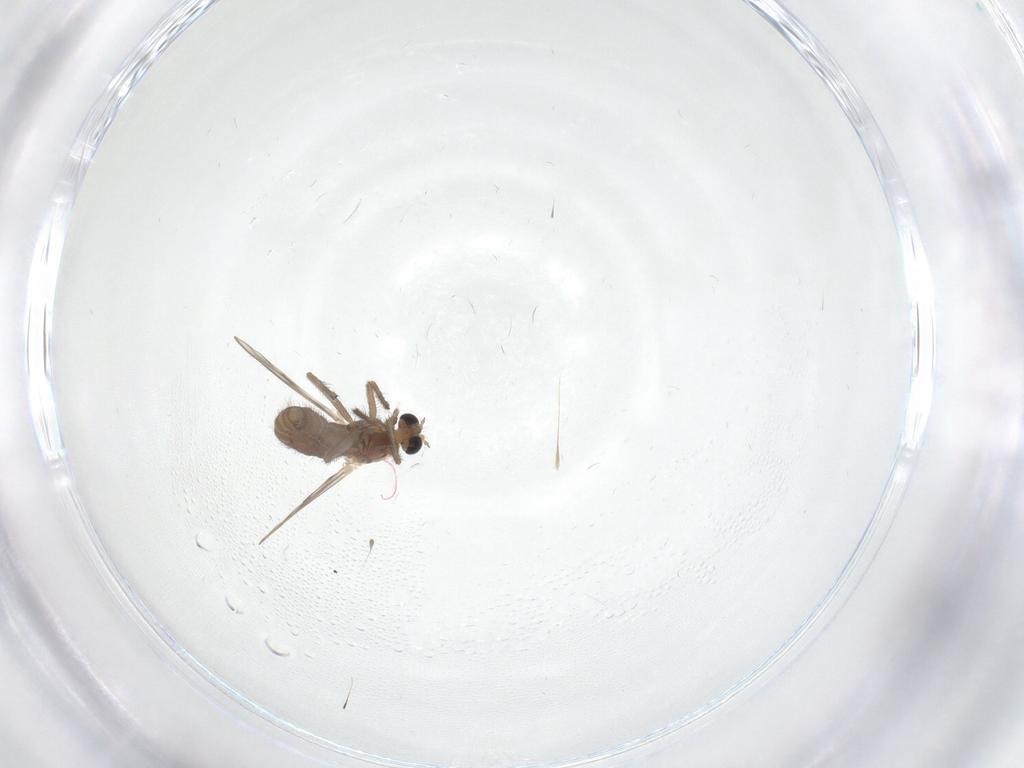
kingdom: Animalia
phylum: Arthropoda
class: Insecta
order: Diptera
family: Chironomidae
